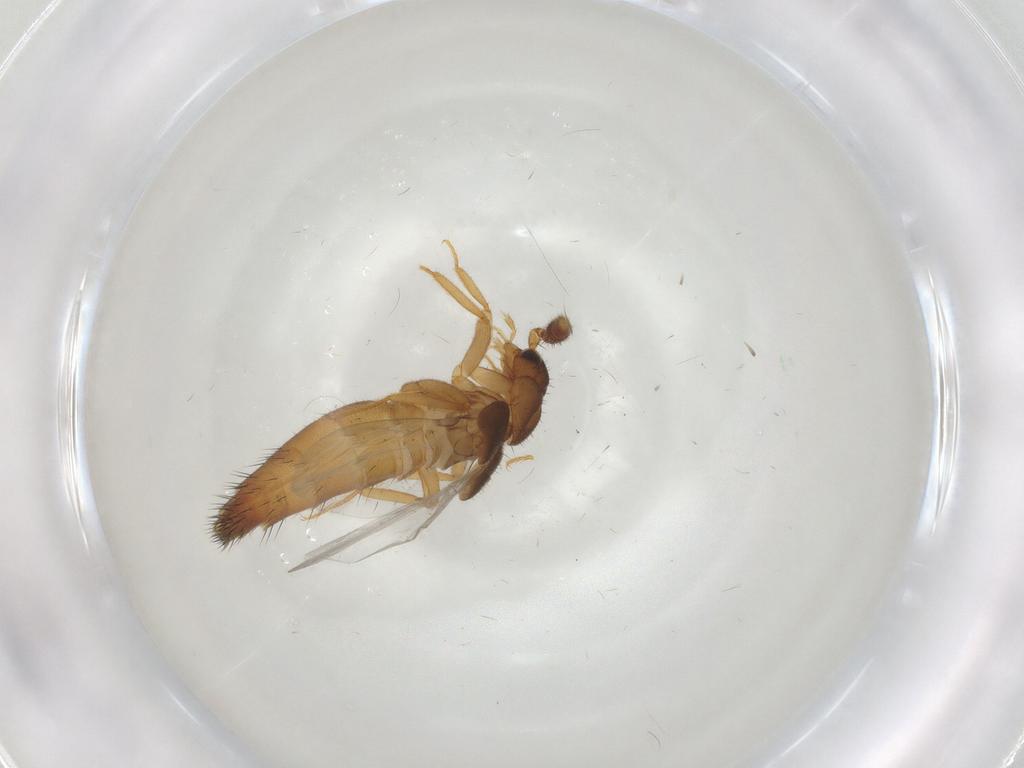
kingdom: Animalia
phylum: Arthropoda
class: Insecta
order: Coleoptera
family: Staphylinidae
